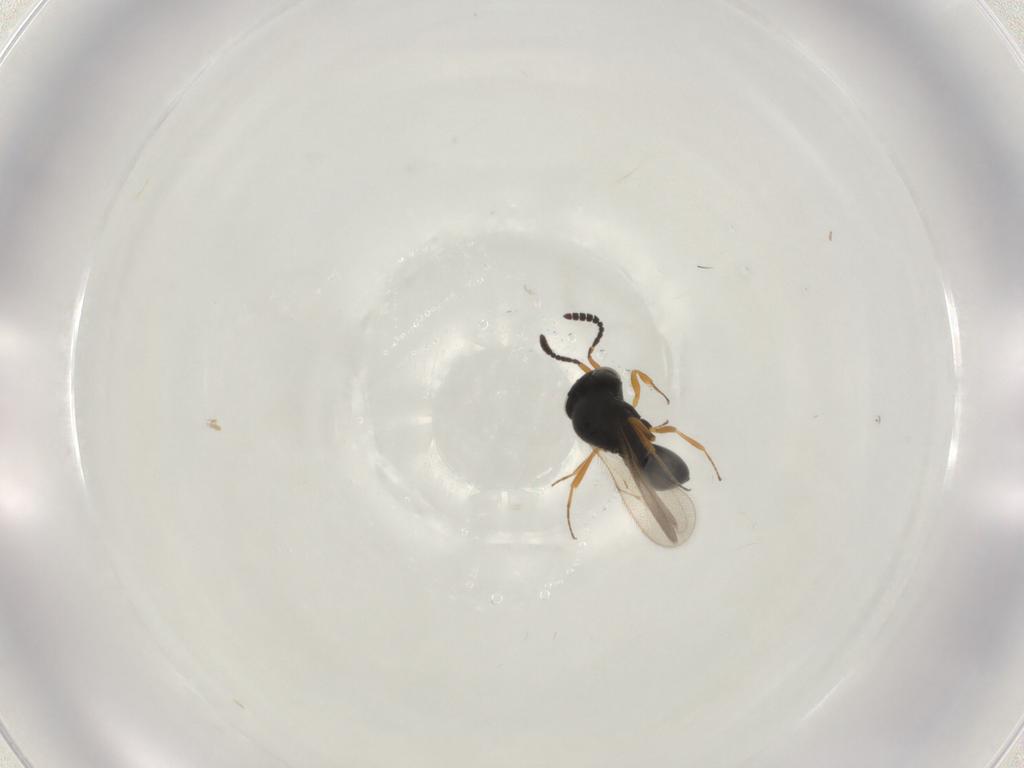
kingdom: Animalia
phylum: Arthropoda
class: Insecta
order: Hymenoptera
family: Scelionidae
